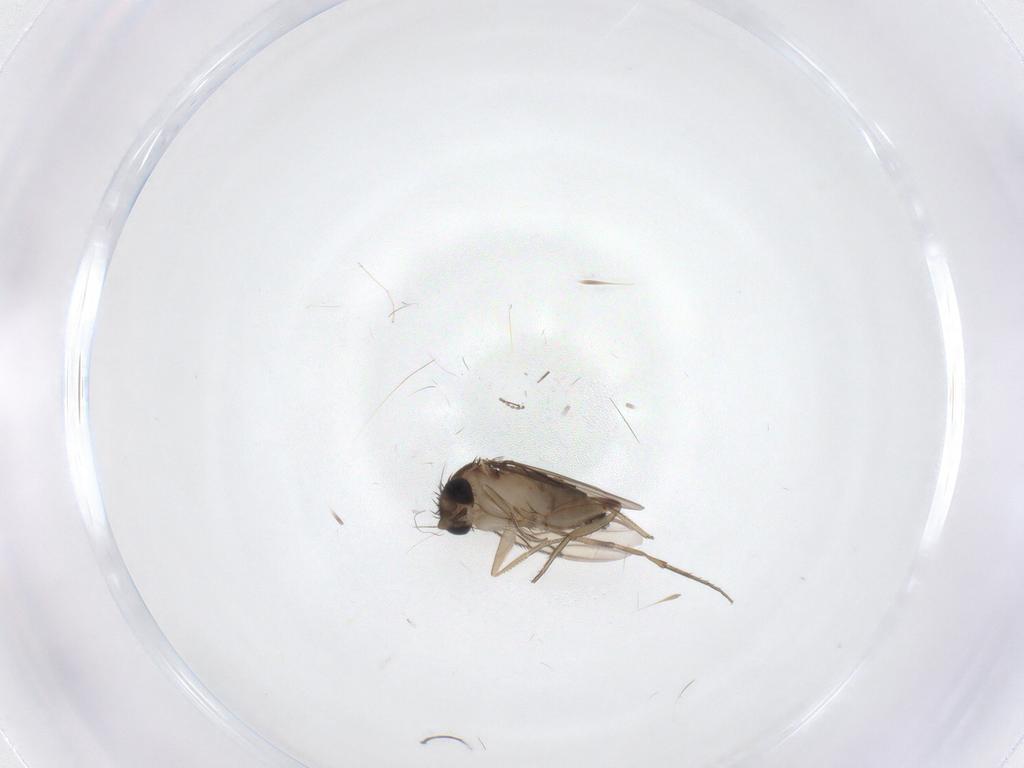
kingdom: Animalia
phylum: Arthropoda
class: Insecta
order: Diptera
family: Phoridae
